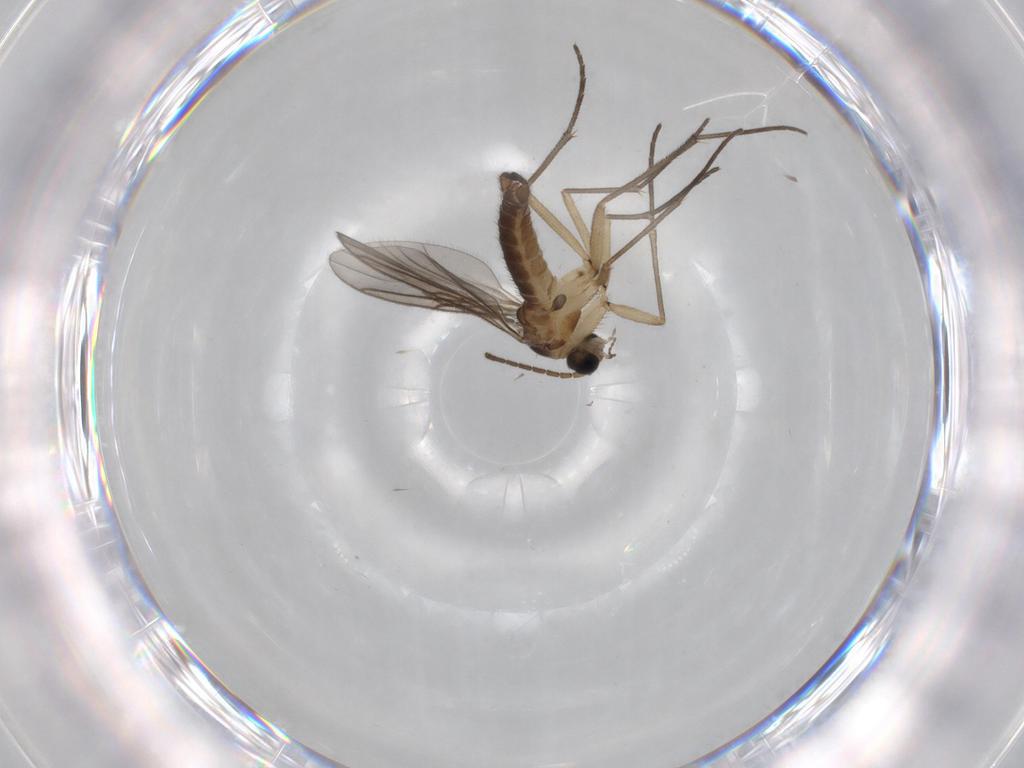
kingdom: Animalia
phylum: Arthropoda
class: Insecta
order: Diptera
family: Sciaridae
